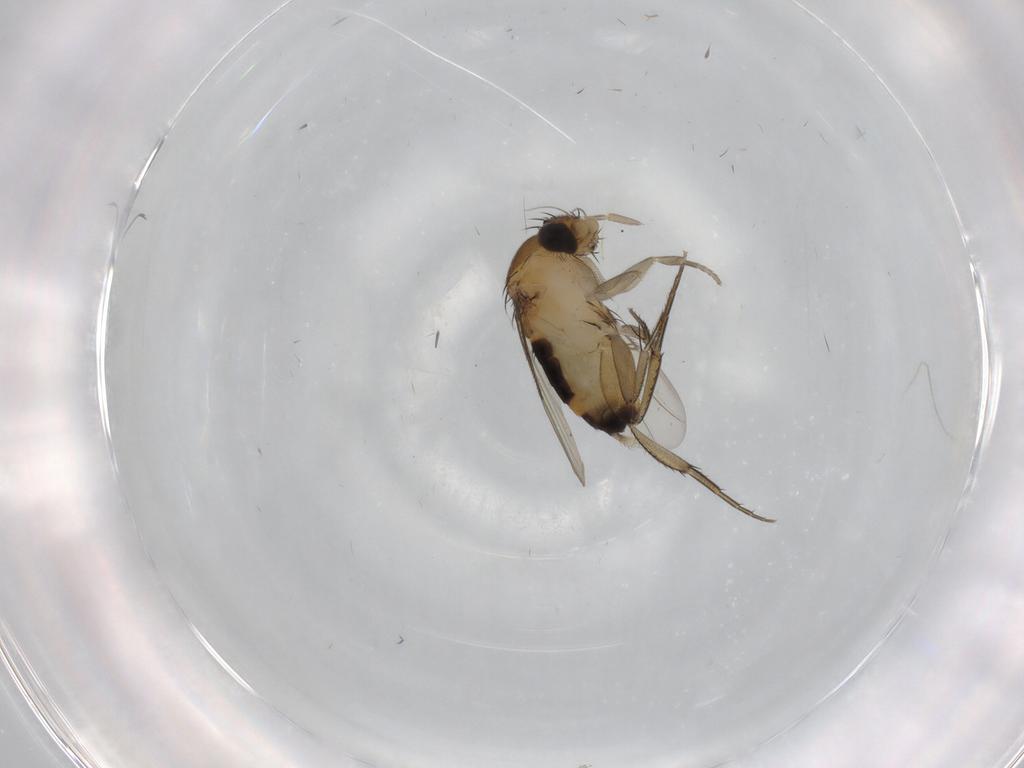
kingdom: Animalia
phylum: Arthropoda
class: Insecta
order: Diptera
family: Phoridae
